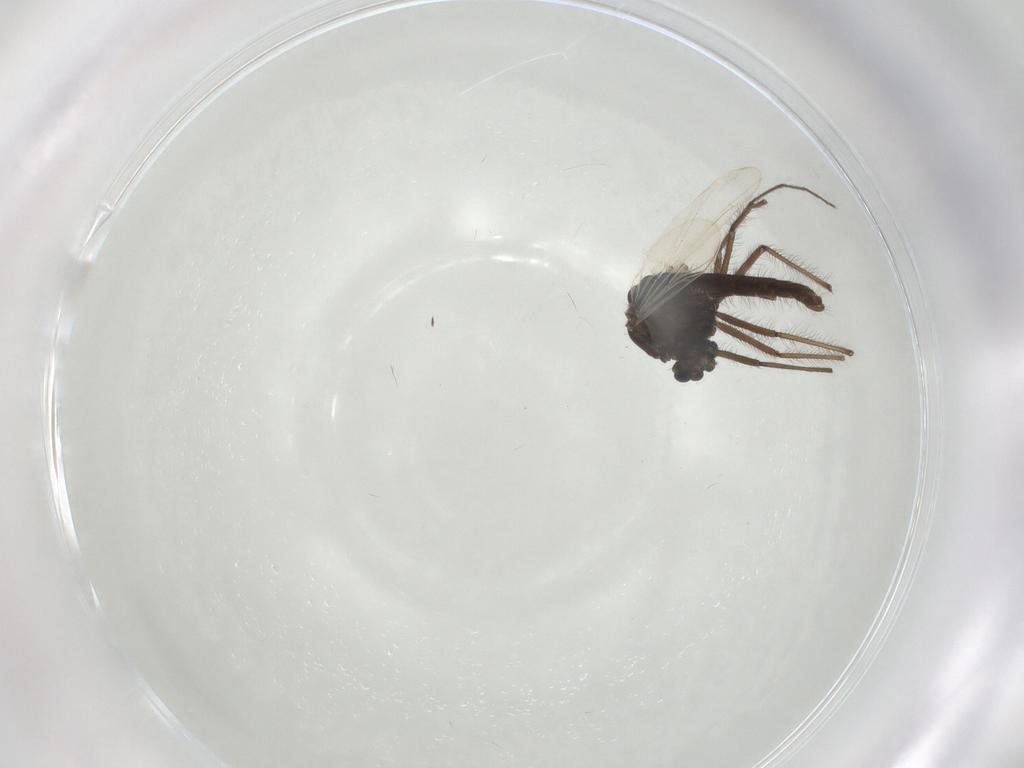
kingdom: Animalia
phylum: Arthropoda
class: Insecta
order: Diptera
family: Chironomidae
